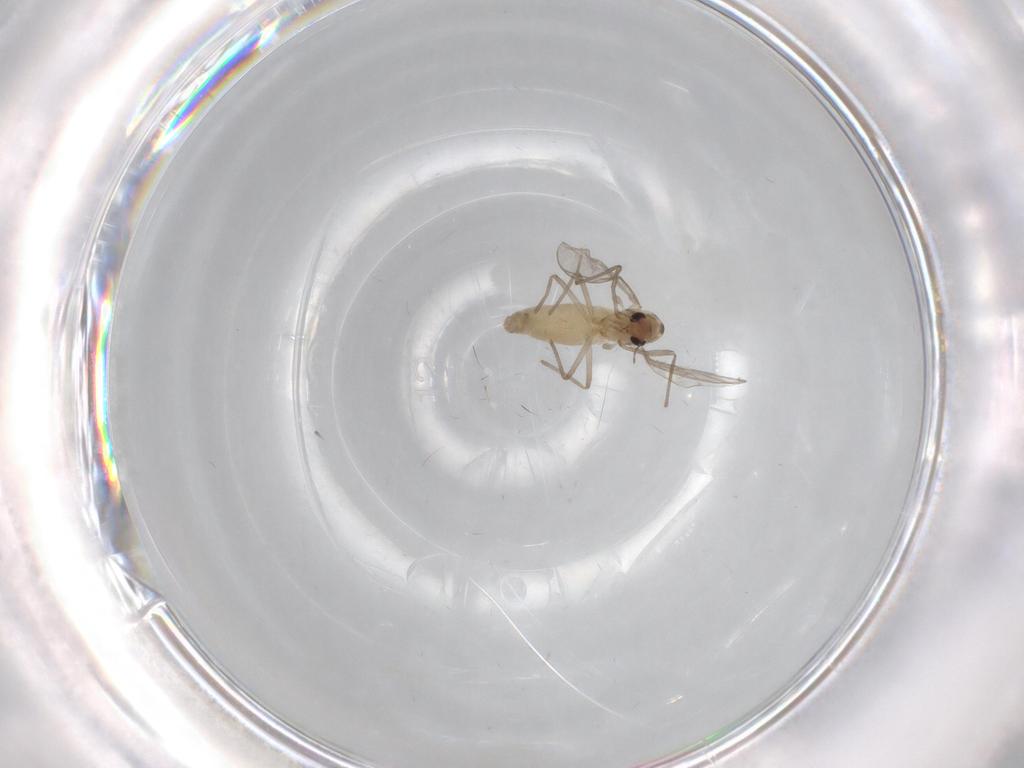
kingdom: Animalia
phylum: Arthropoda
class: Insecta
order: Diptera
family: Chironomidae
